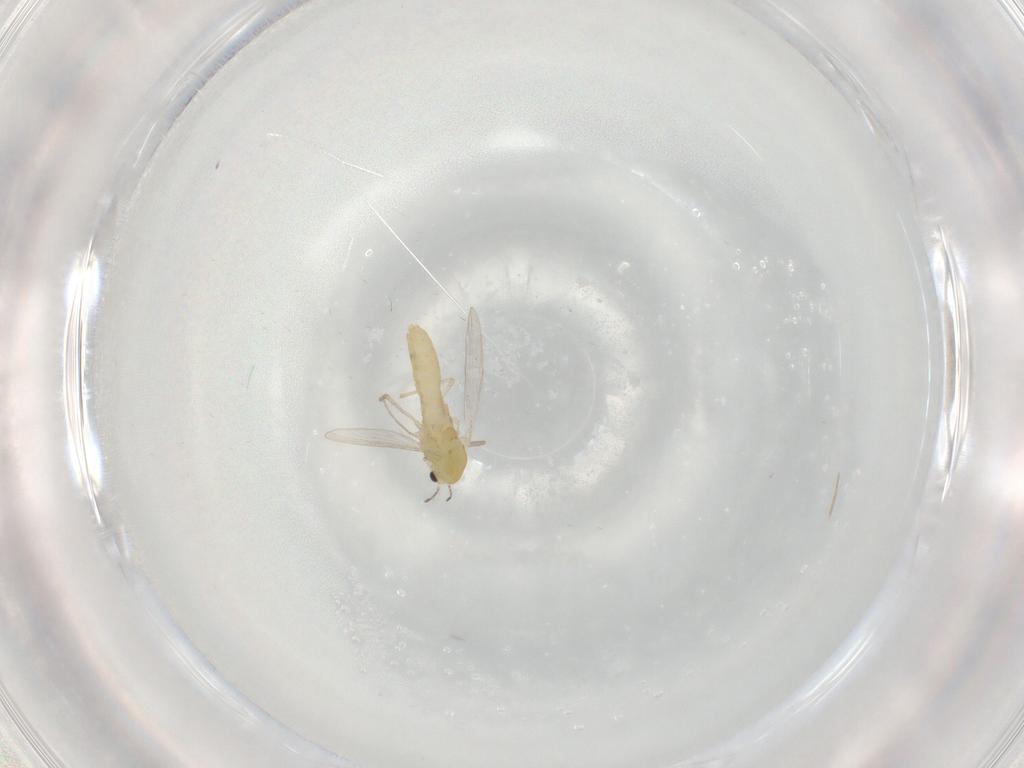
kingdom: Animalia
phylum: Arthropoda
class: Insecta
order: Diptera
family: Chironomidae
